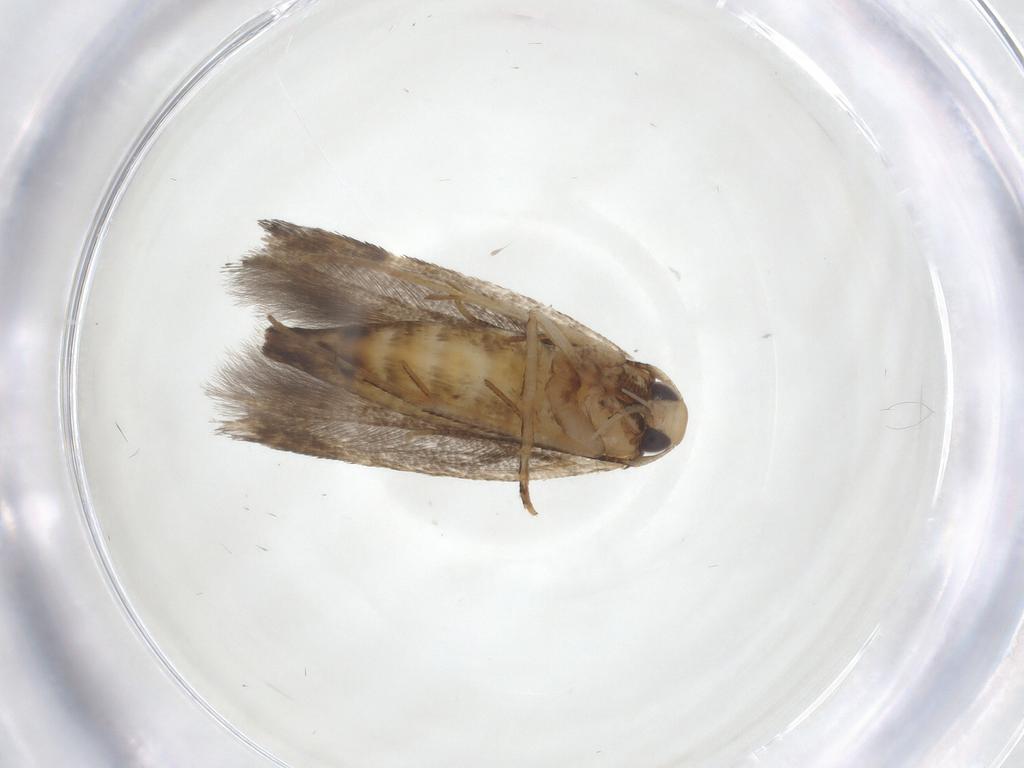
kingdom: Animalia
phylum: Arthropoda
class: Insecta
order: Lepidoptera
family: Cosmopterigidae
